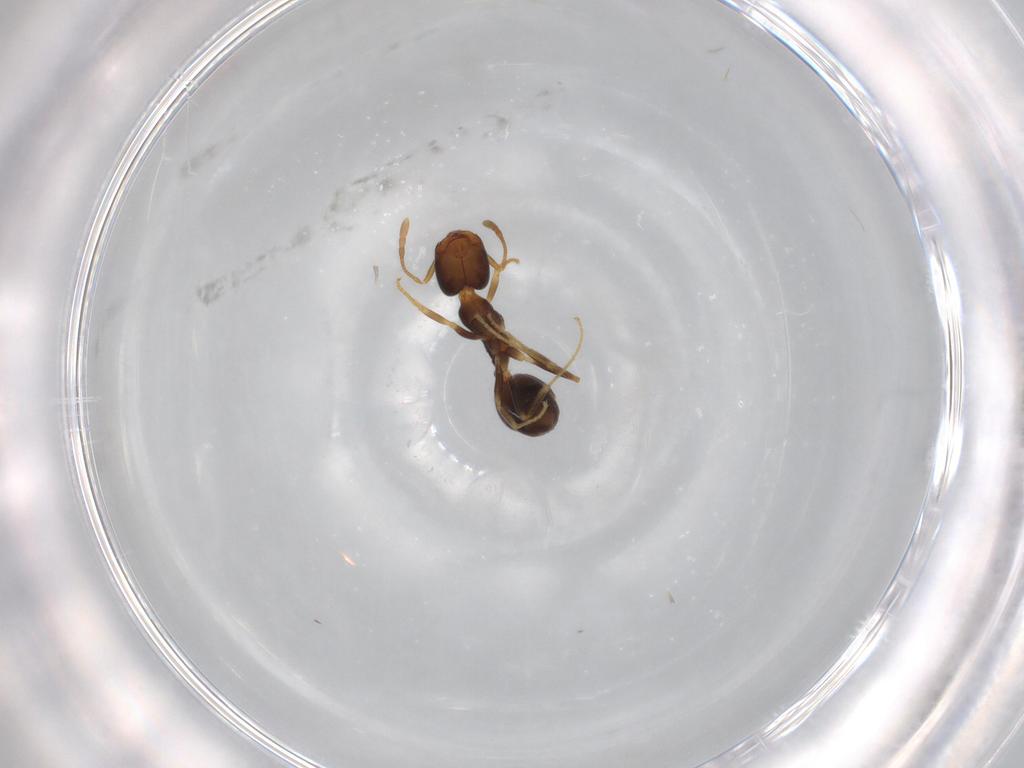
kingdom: Animalia
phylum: Arthropoda
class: Insecta
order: Hymenoptera
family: Formicidae
